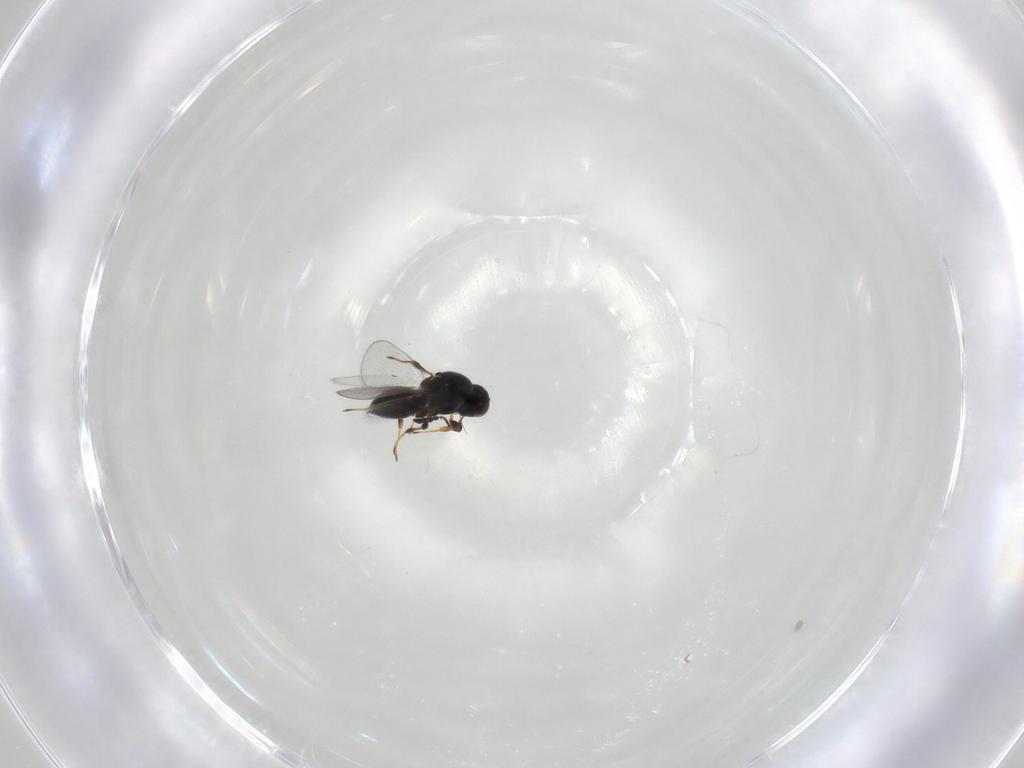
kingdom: Animalia
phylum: Arthropoda
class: Insecta
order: Hymenoptera
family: Platygastridae
